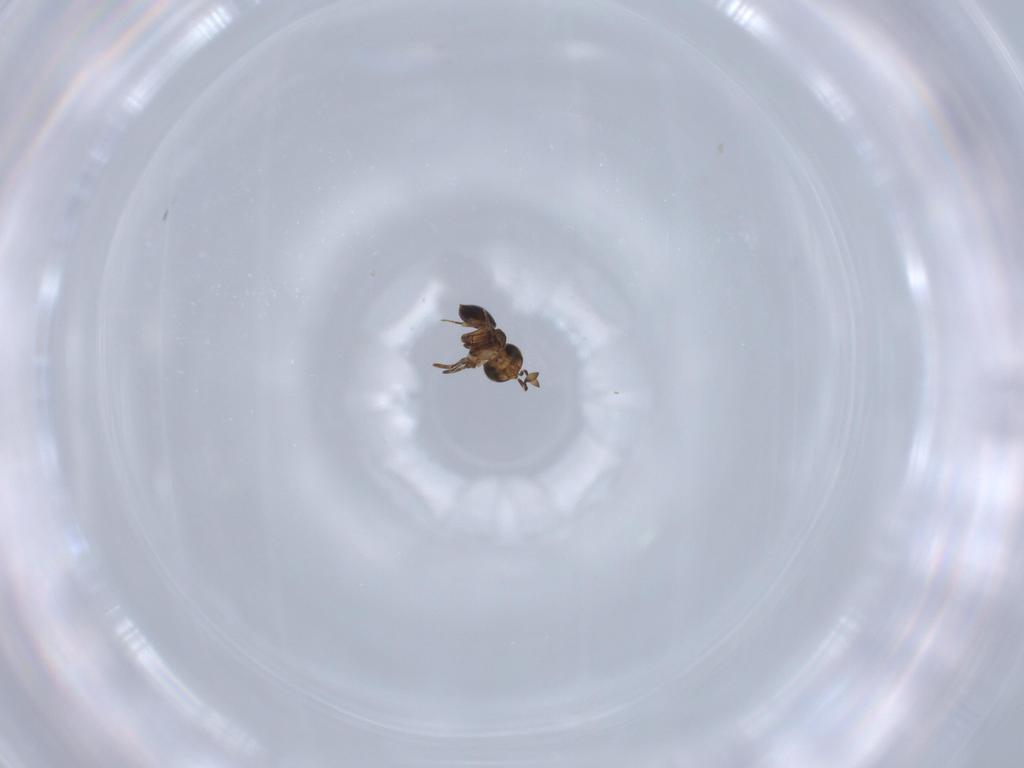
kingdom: Animalia
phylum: Arthropoda
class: Insecta
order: Hymenoptera
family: Scelionidae
